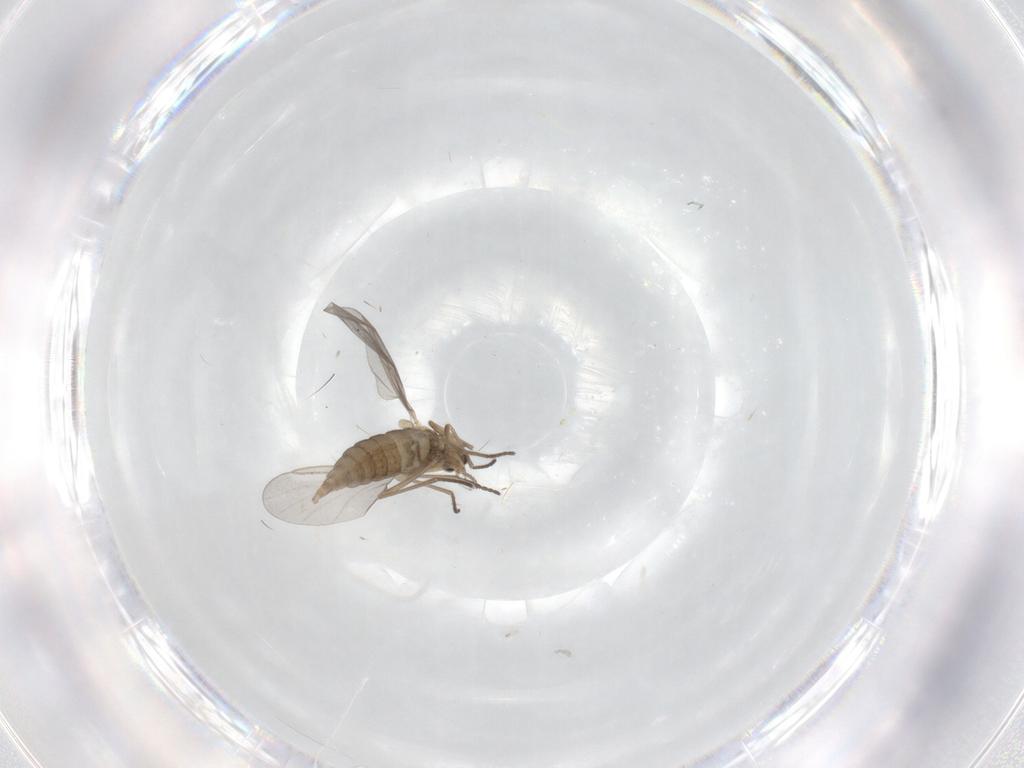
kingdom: Animalia
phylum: Arthropoda
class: Insecta
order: Diptera
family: Cecidomyiidae
